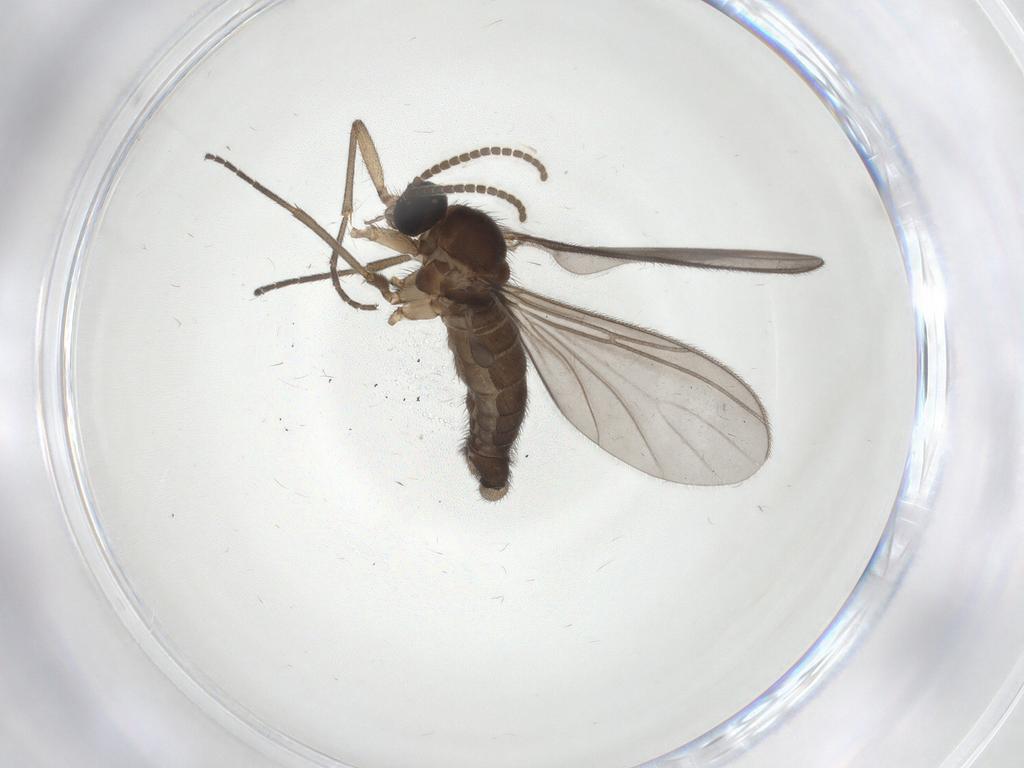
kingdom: Animalia
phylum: Arthropoda
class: Insecta
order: Diptera
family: Sciaridae
